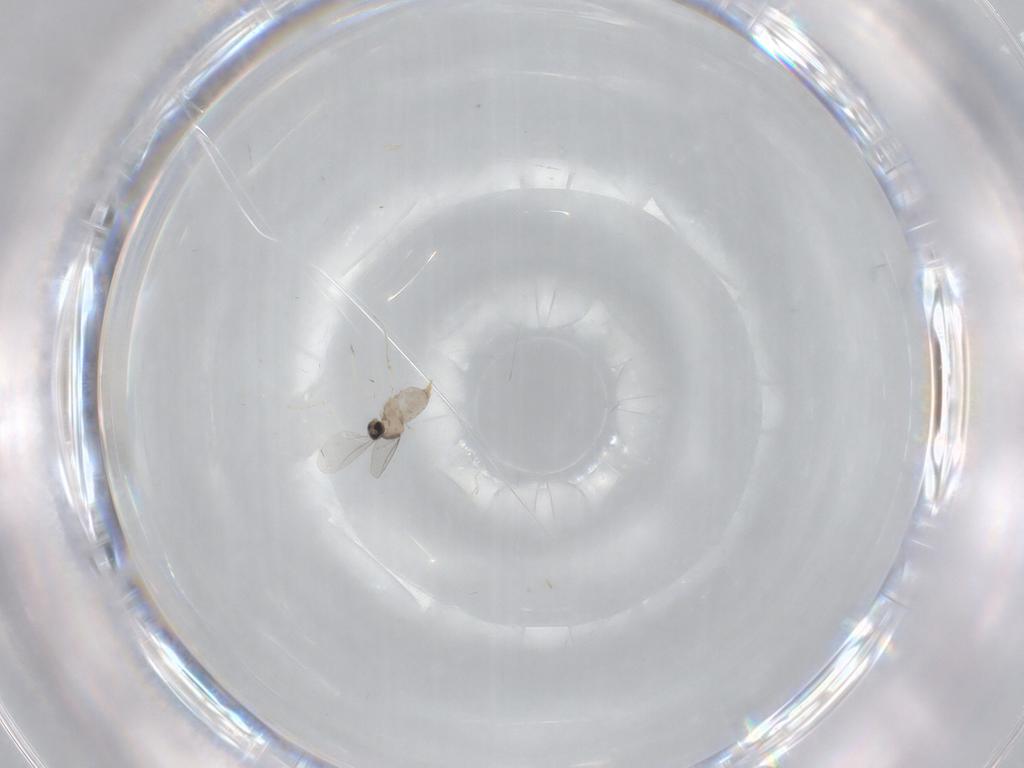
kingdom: Animalia
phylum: Arthropoda
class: Insecta
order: Diptera
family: Cecidomyiidae
